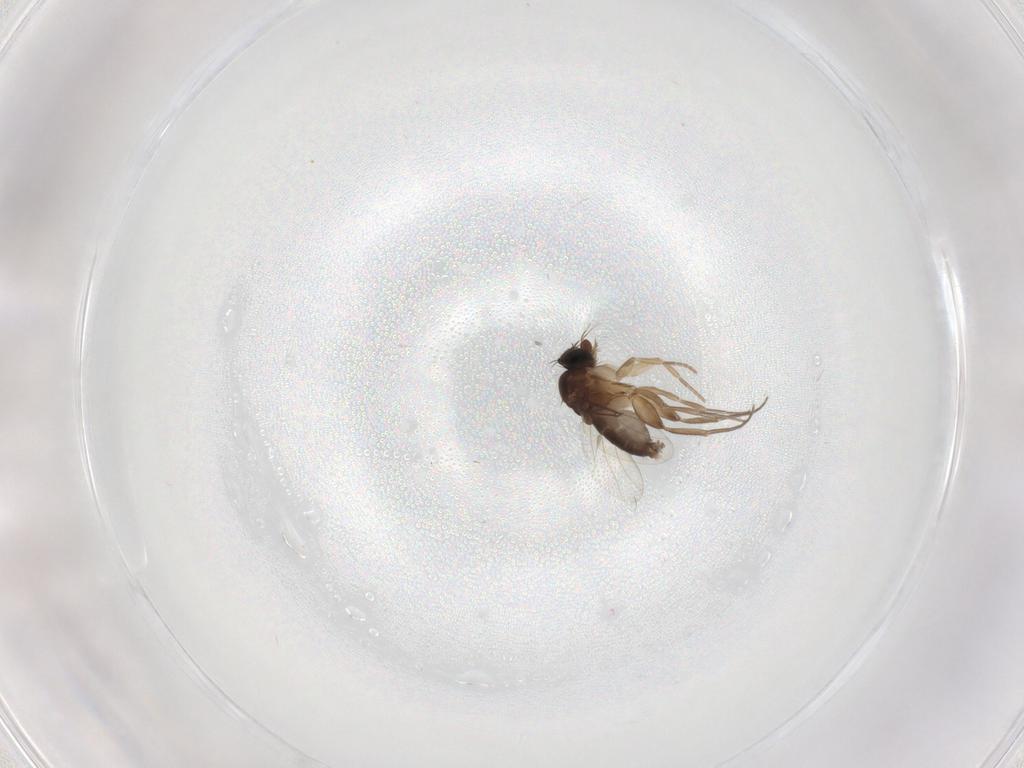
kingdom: Animalia
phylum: Arthropoda
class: Insecta
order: Diptera
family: Phoridae
